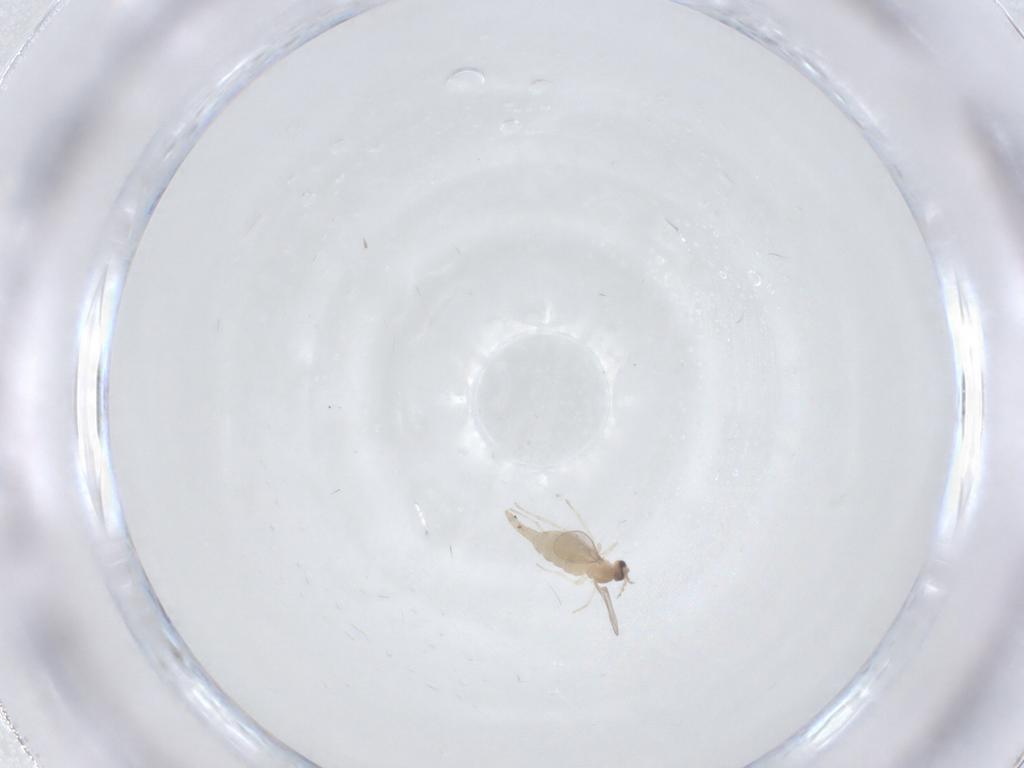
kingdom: Animalia
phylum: Arthropoda
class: Insecta
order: Diptera
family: Cecidomyiidae
